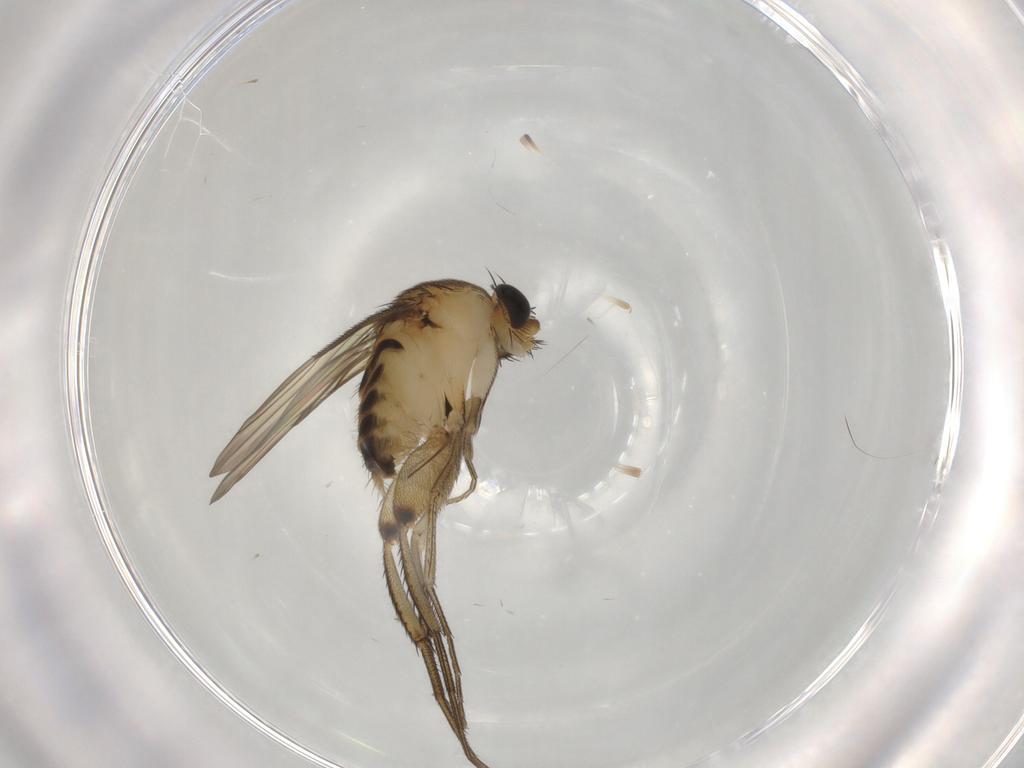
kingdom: Animalia
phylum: Arthropoda
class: Insecta
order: Diptera
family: Phoridae
